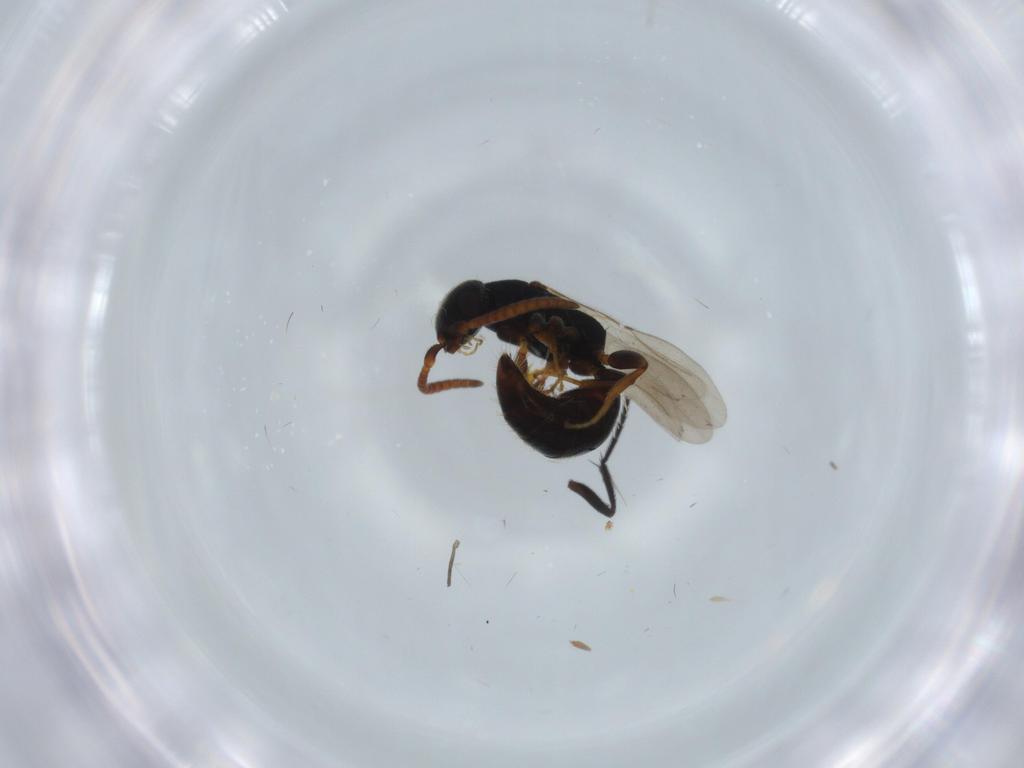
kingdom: Animalia
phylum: Arthropoda
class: Insecta
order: Hymenoptera
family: Bethylidae
